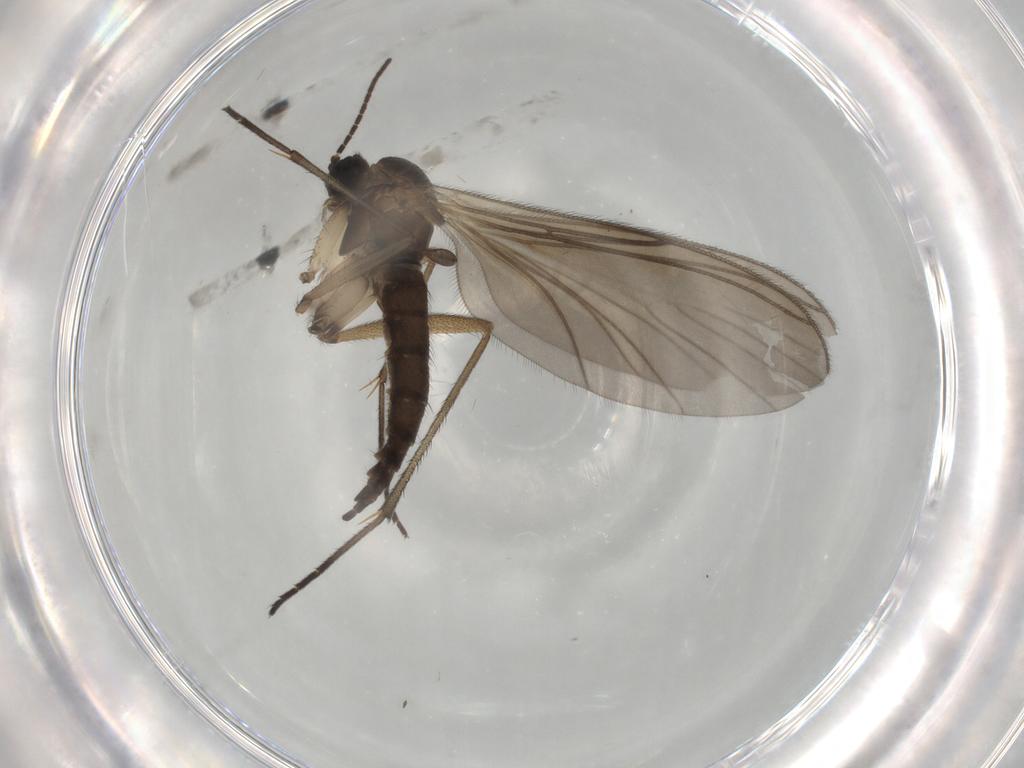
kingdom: Animalia
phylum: Arthropoda
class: Insecta
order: Diptera
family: Sciaridae
